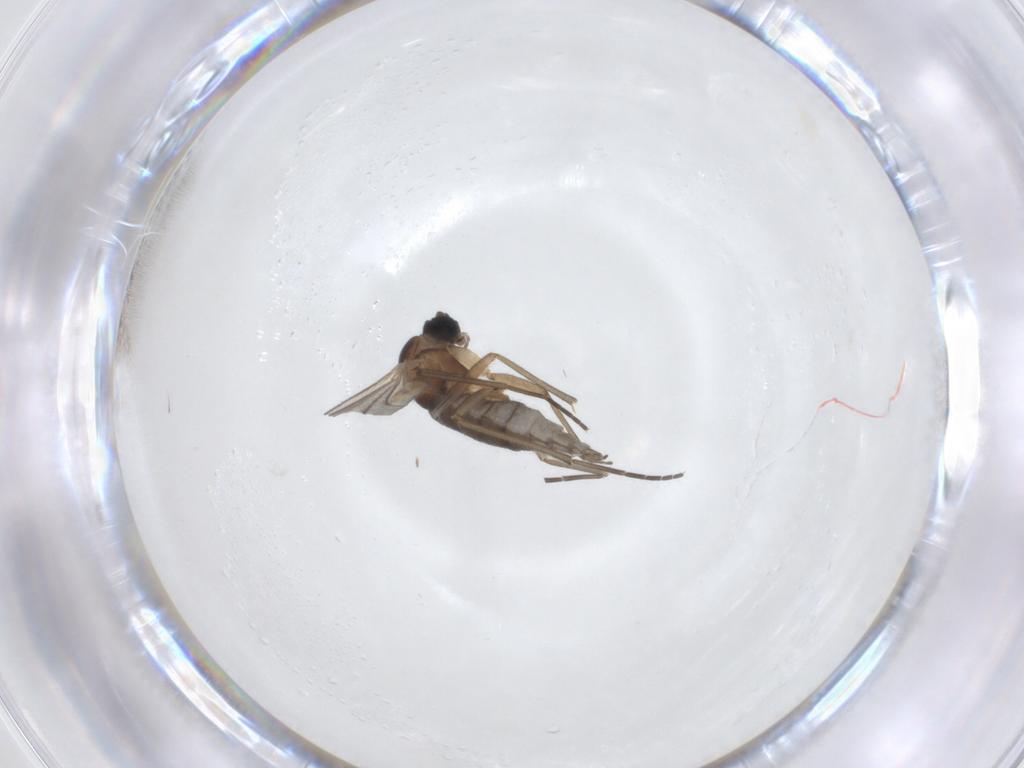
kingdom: Animalia
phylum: Arthropoda
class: Insecta
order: Diptera
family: Sciaridae
